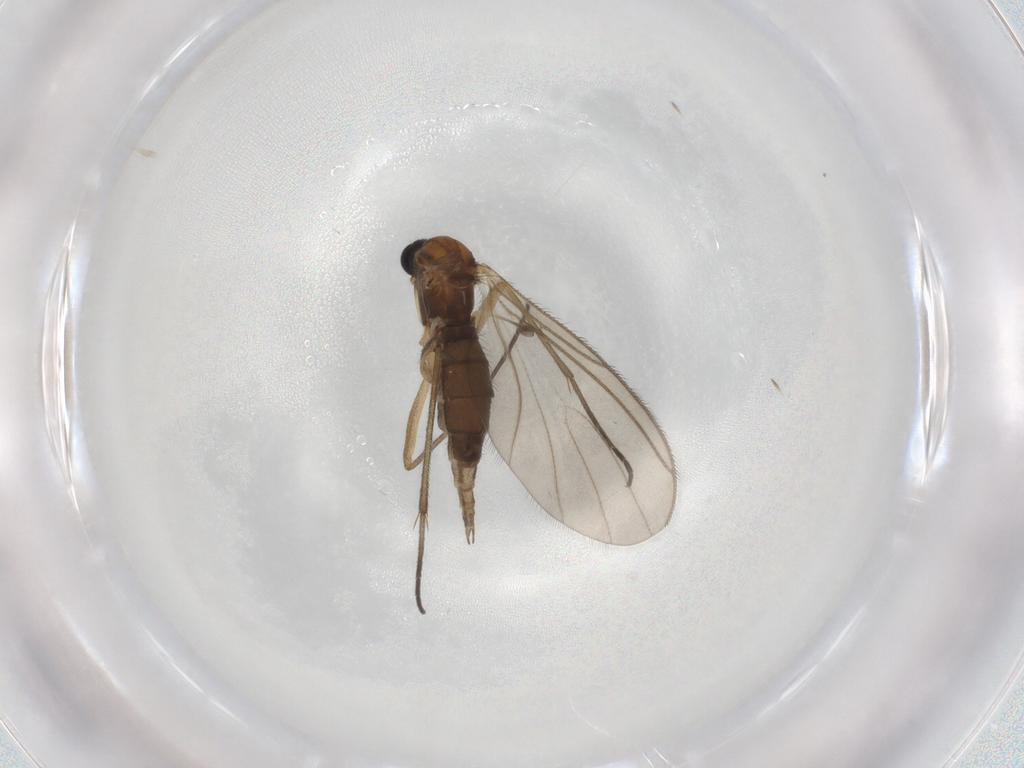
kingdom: Animalia
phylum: Arthropoda
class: Insecta
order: Diptera
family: Sciaridae
